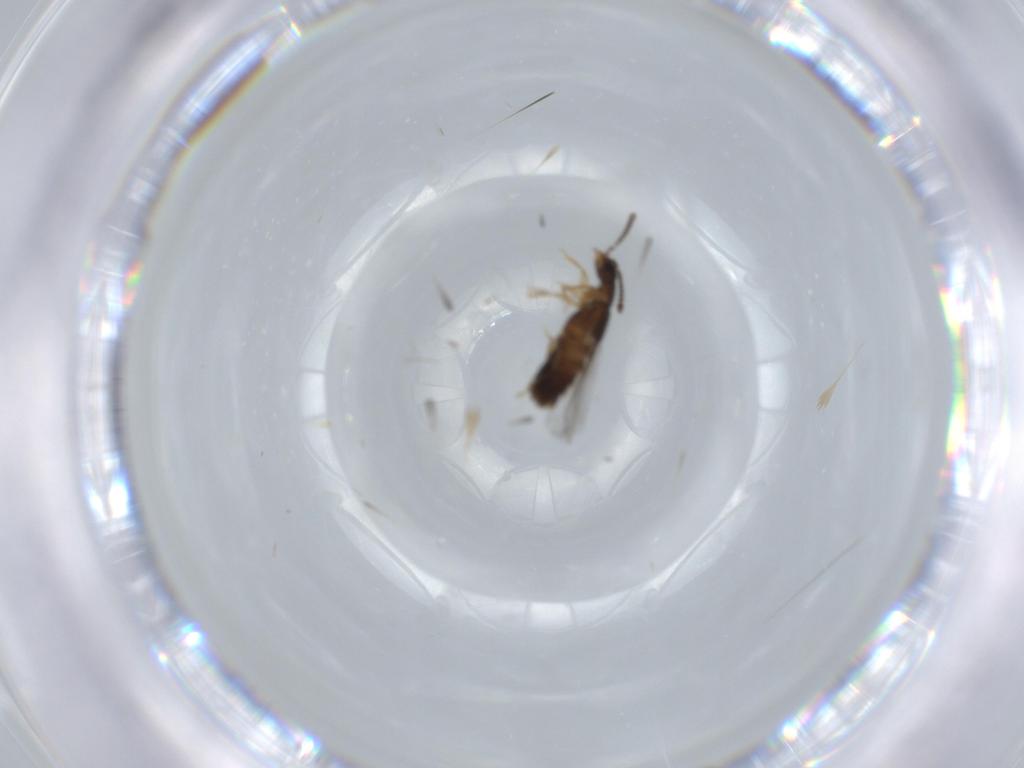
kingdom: Animalia
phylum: Arthropoda
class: Insecta
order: Coleoptera
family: Staphylinidae
